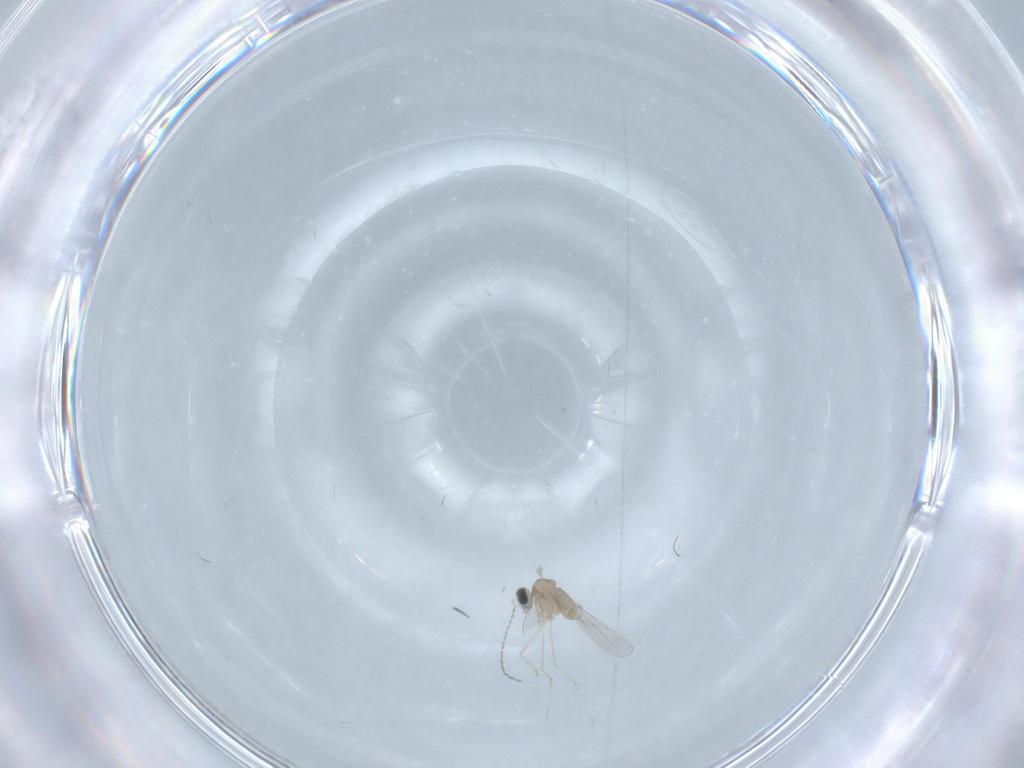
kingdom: Animalia
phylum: Arthropoda
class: Insecta
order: Diptera
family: Cecidomyiidae
